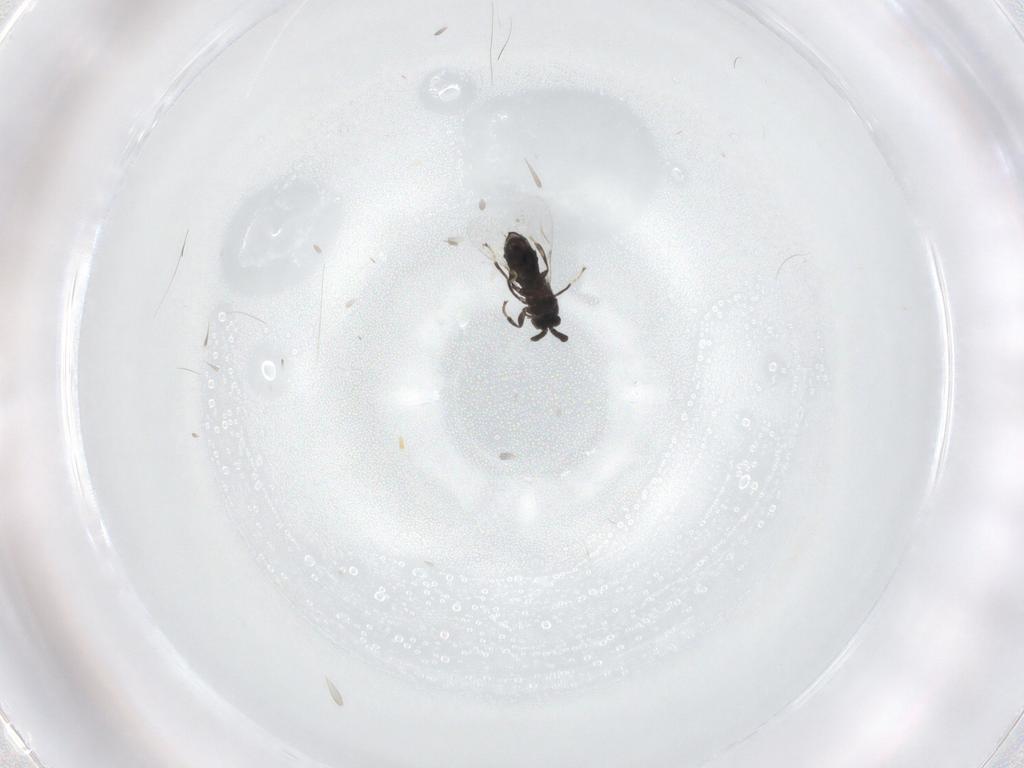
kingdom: Animalia
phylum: Arthropoda
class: Insecta
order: Diptera
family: Scatopsidae
